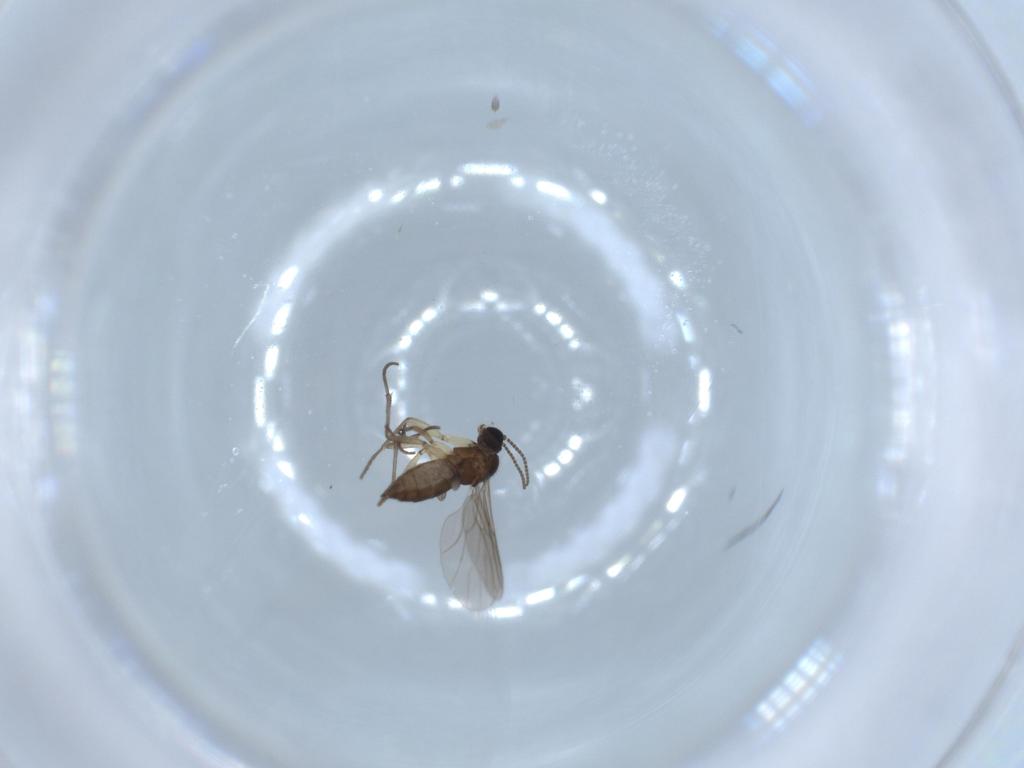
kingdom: Animalia
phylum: Arthropoda
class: Insecta
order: Diptera
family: Sciaridae
